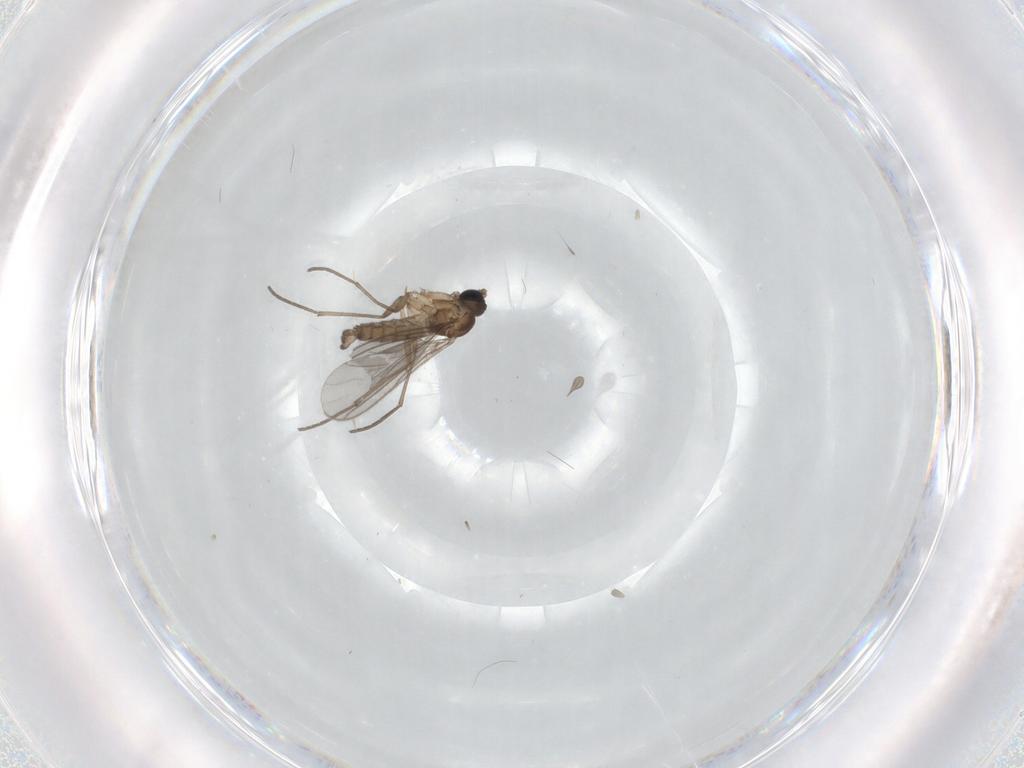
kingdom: Animalia
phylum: Arthropoda
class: Insecta
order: Diptera
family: Sciaridae
